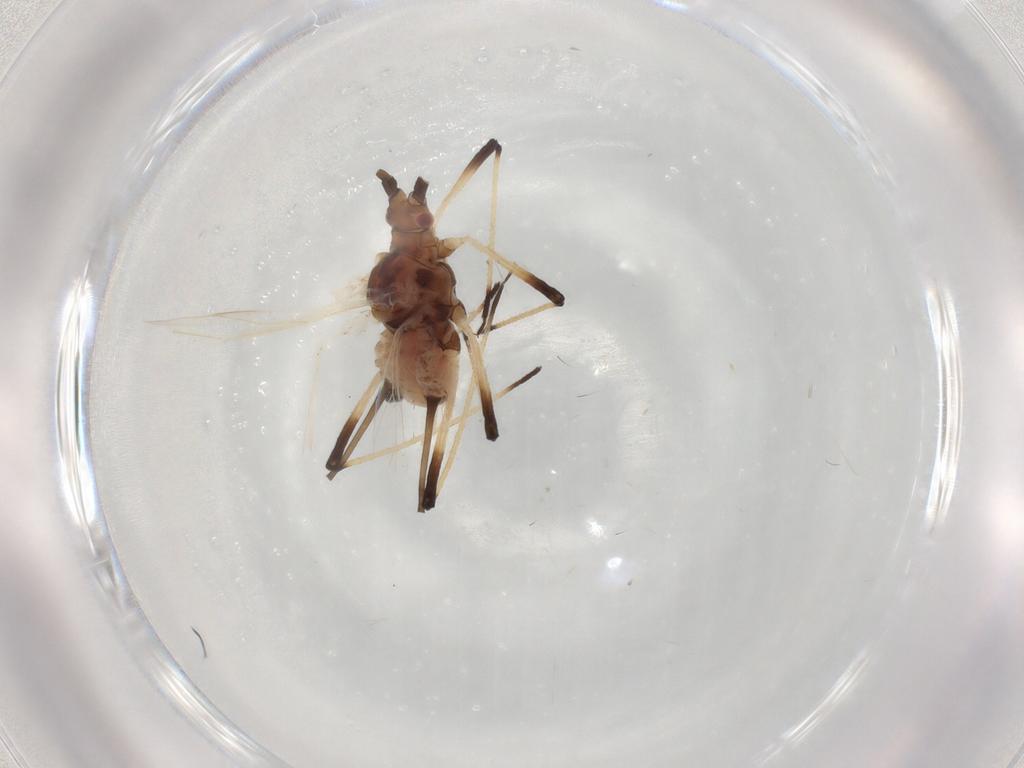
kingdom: Animalia
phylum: Arthropoda
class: Insecta
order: Hemiptera
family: Aphididae
